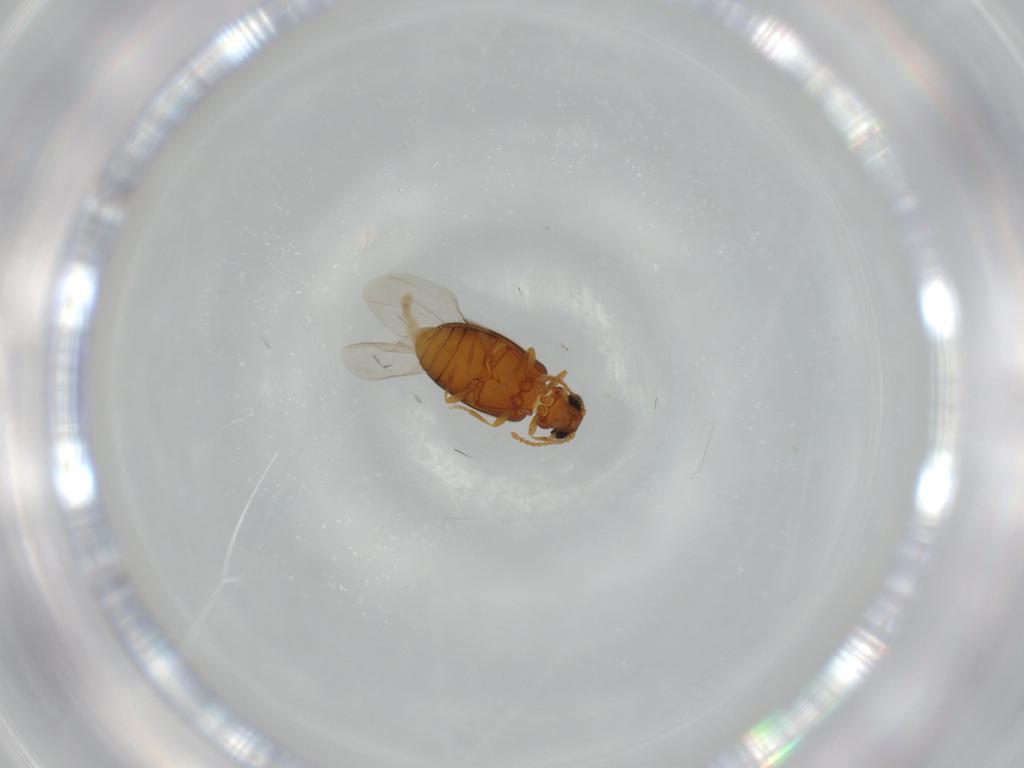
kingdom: Animalia
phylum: Arthropoda
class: Insecta
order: Coleoptera
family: Aderidae
